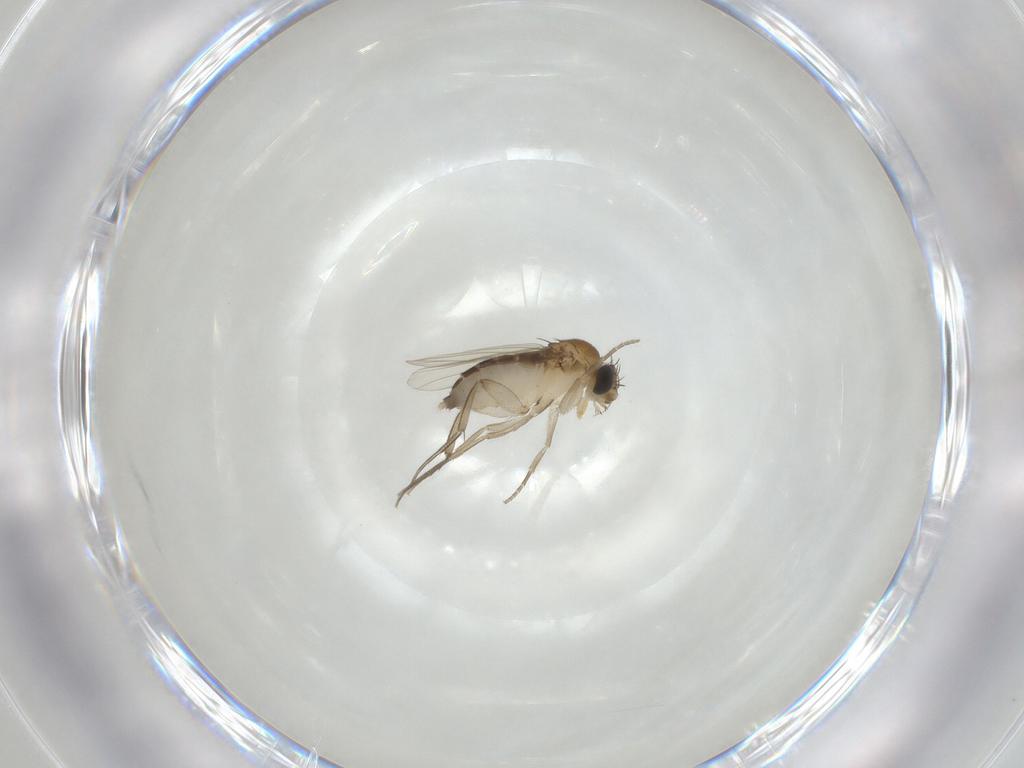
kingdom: Animalia
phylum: Arthropoda
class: Insecta
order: Diptera
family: Phoridae
